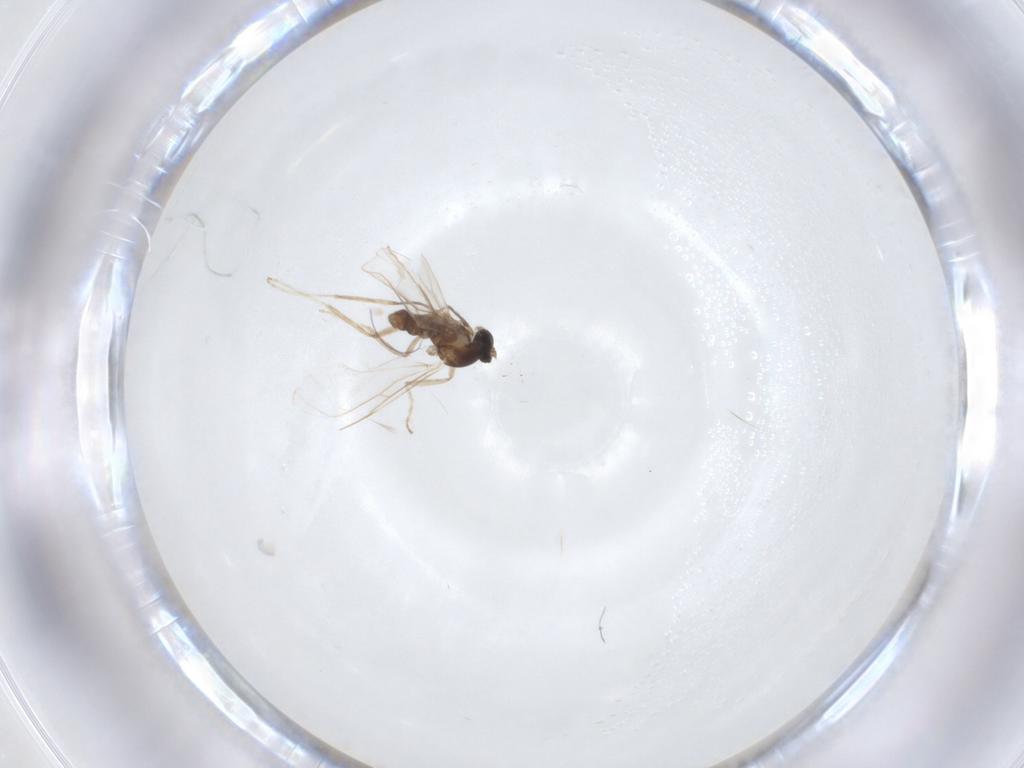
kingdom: Animalia
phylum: Arthropoda
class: Insecta
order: Diptera
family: Cecidomyiidae
